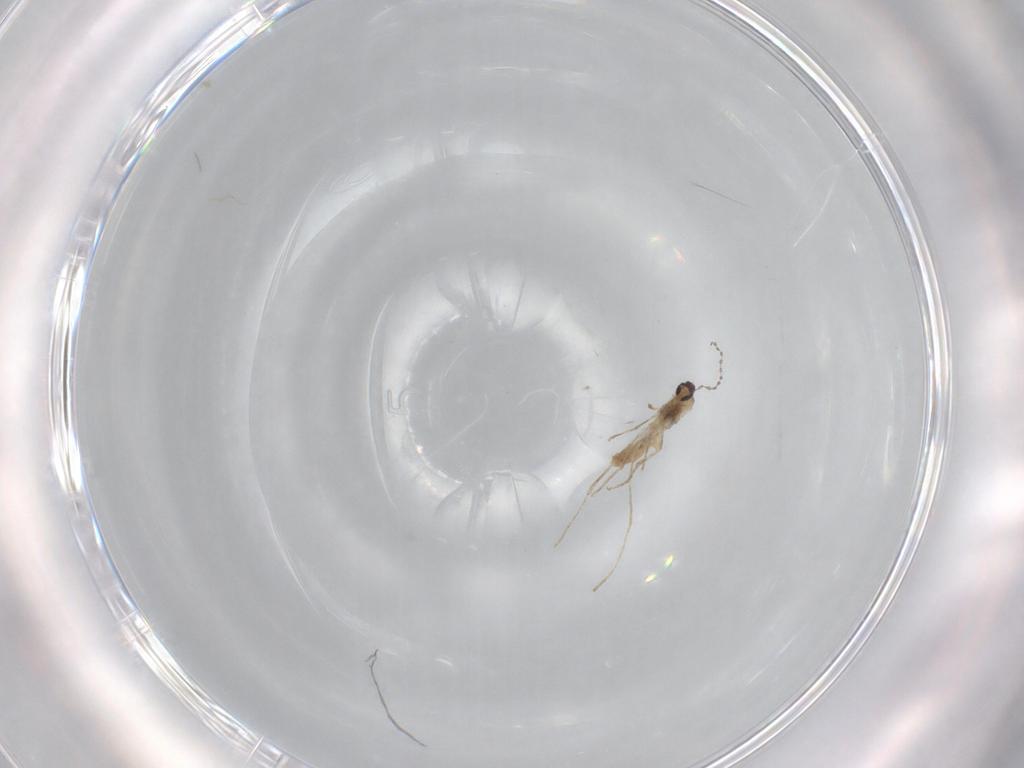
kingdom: Animalia
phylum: Arthropoda
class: Insecta
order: Diptera
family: Cecidomyiidae
